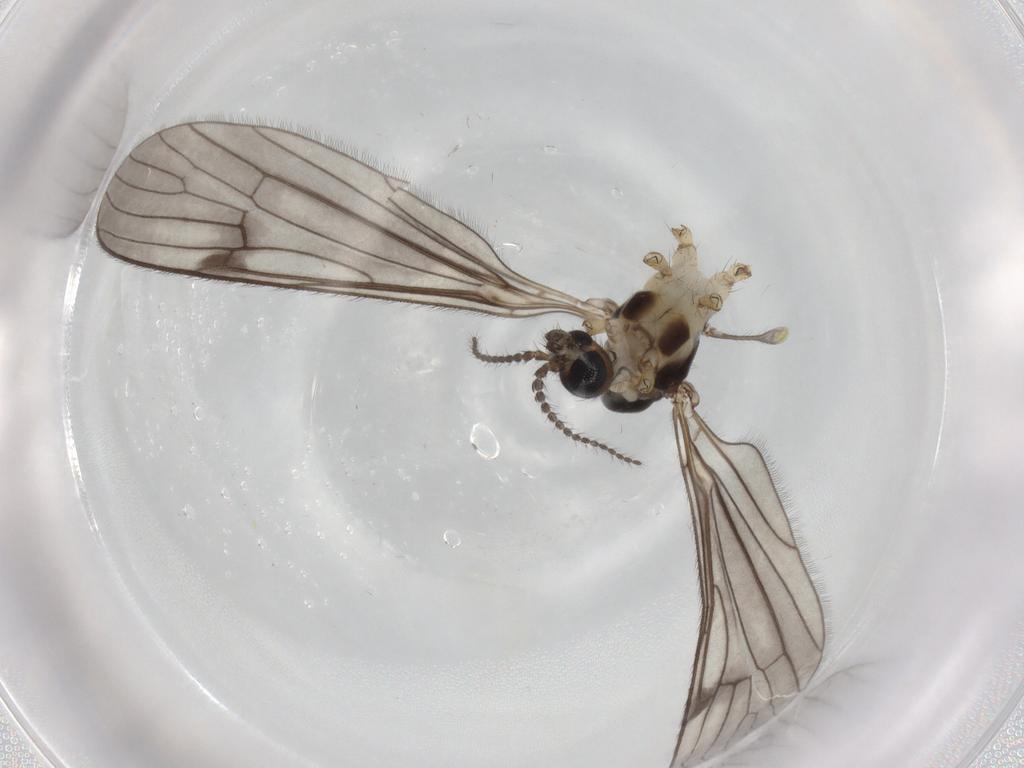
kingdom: Animalia
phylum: Arthropoda
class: Insecta
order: Diptera
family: Limoniidae
